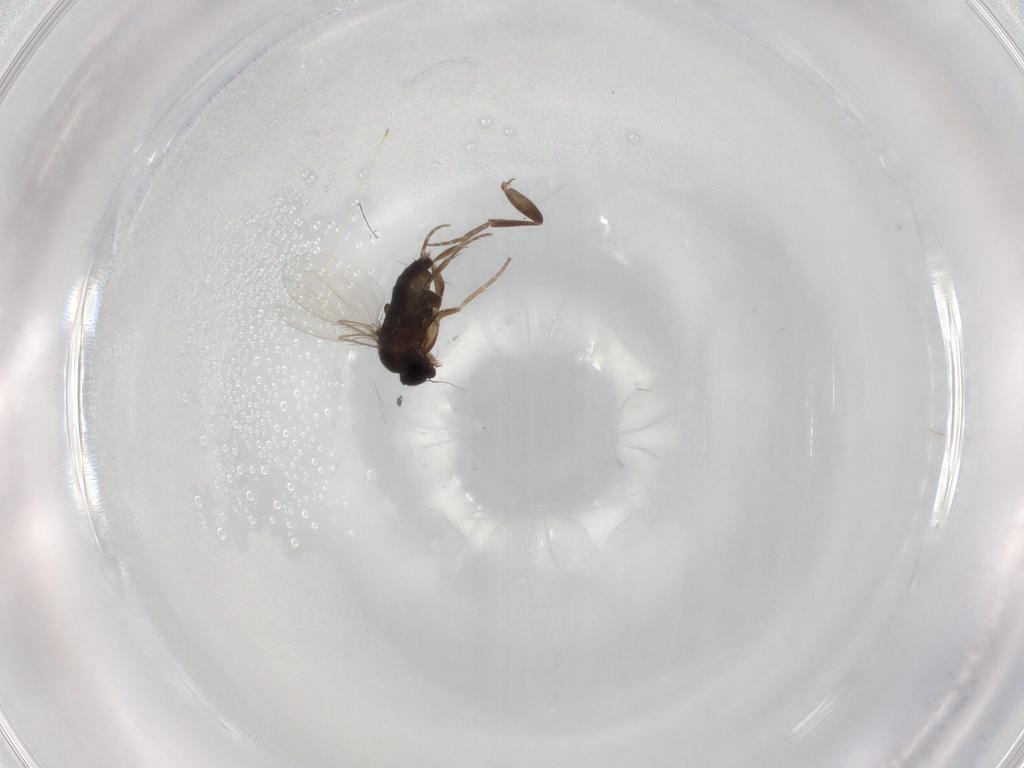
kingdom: Animalia
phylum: Arthropoda
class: Insecta
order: Diptera
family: Phoridae
